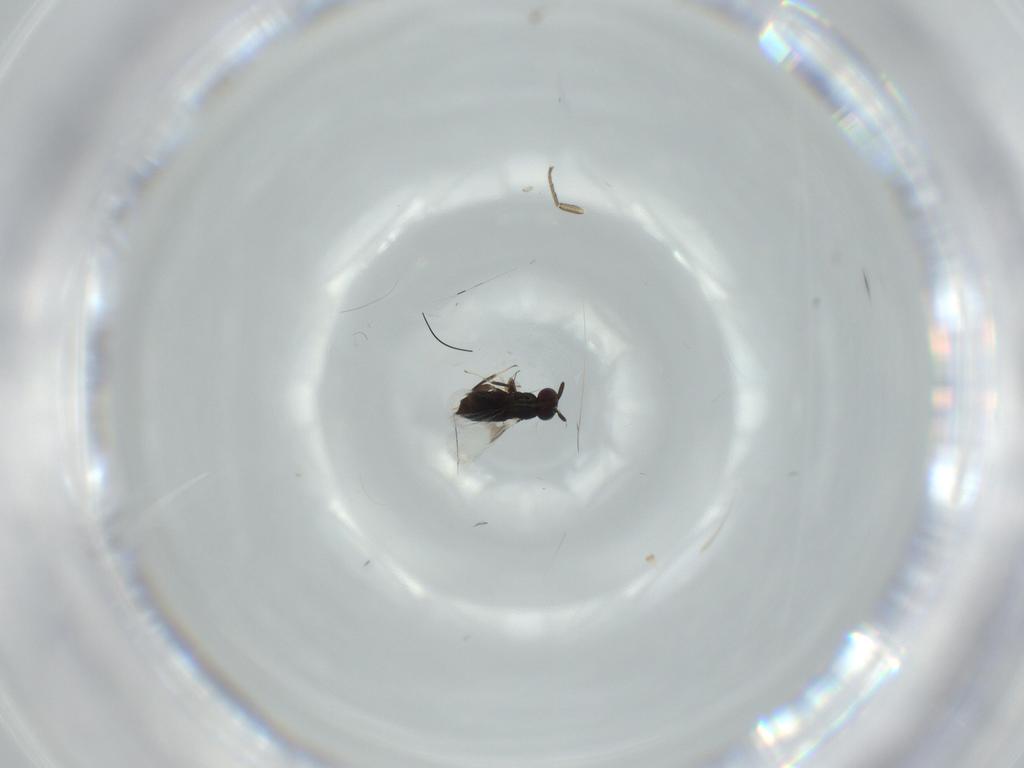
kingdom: Animalia
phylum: Arthropoda
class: Insecta
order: Hymenoptera
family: Signiphoridae
